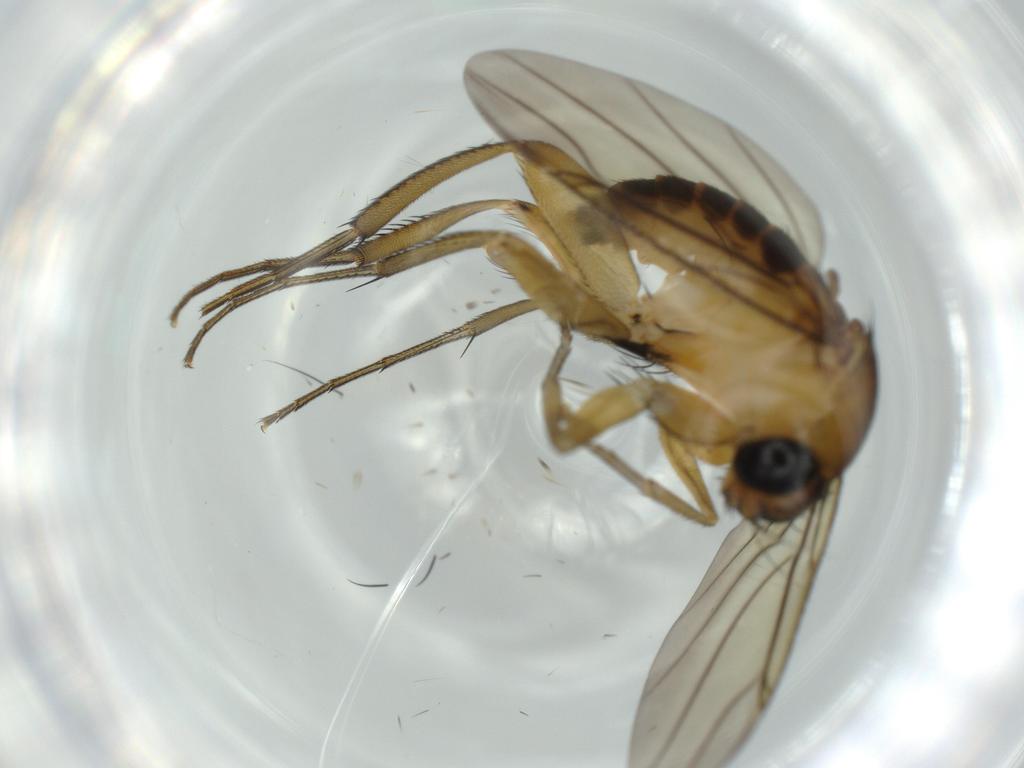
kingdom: Animalia
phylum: Arthropoda
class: Insecta
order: Diptera
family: Phoridae
